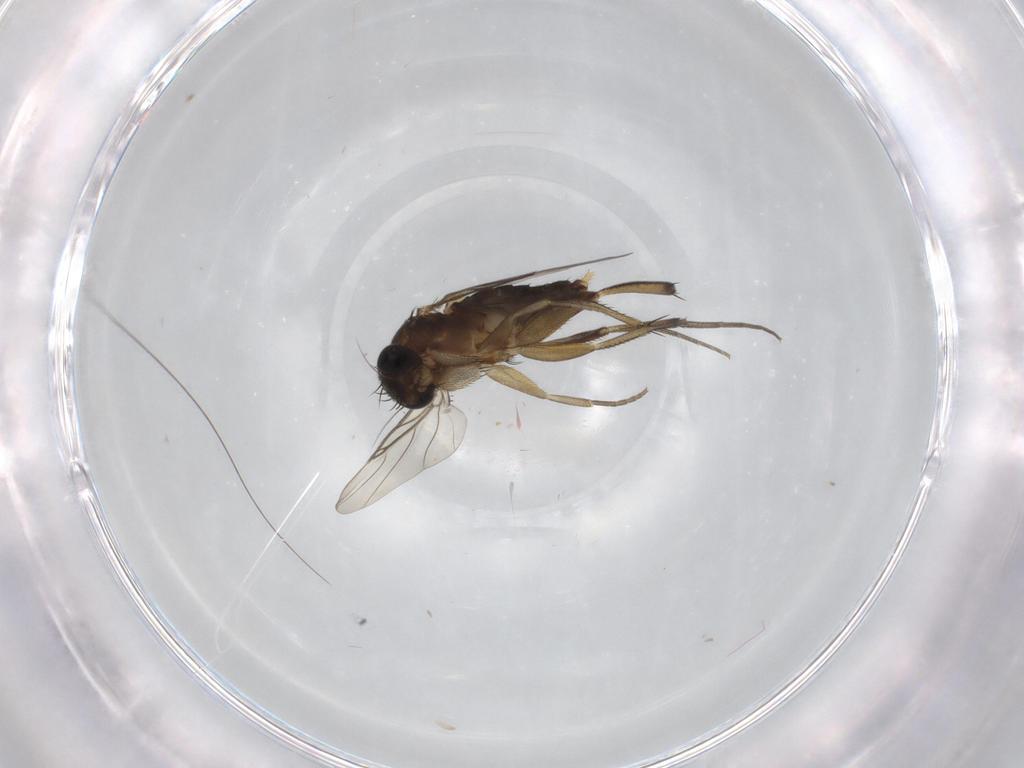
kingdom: Animalia
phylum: Arthropoda
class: Insecta
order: Diptera
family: Phoridae
